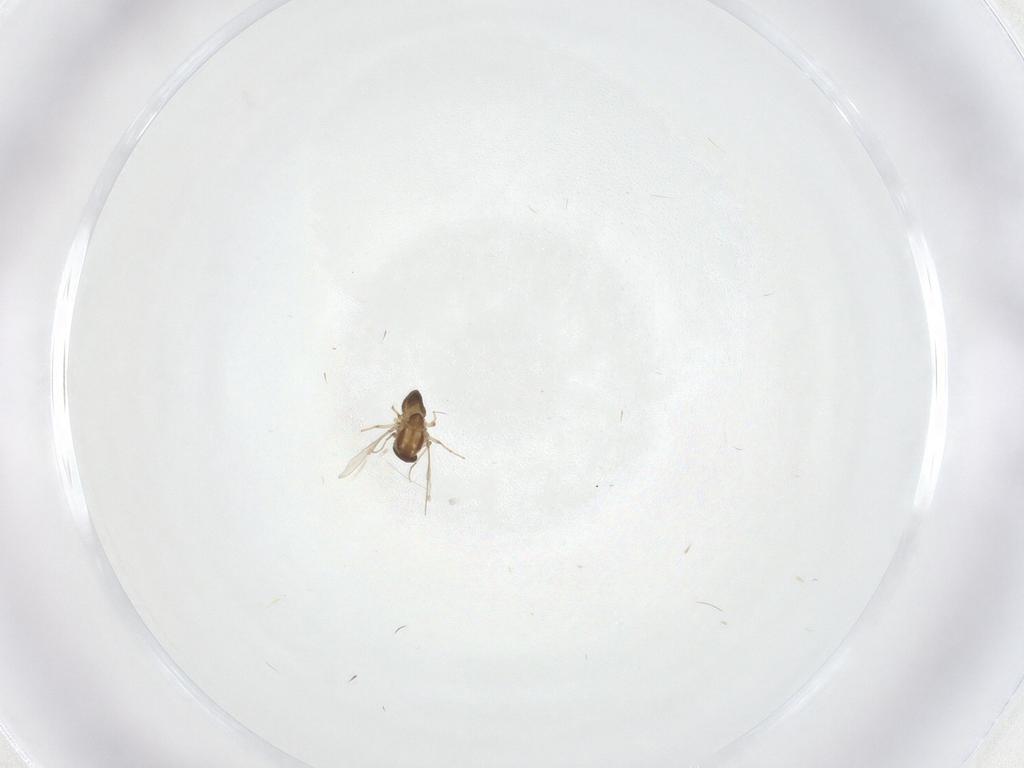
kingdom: Animalia
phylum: Arthropoda
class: Insecta
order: Diptera
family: Chironomidae
